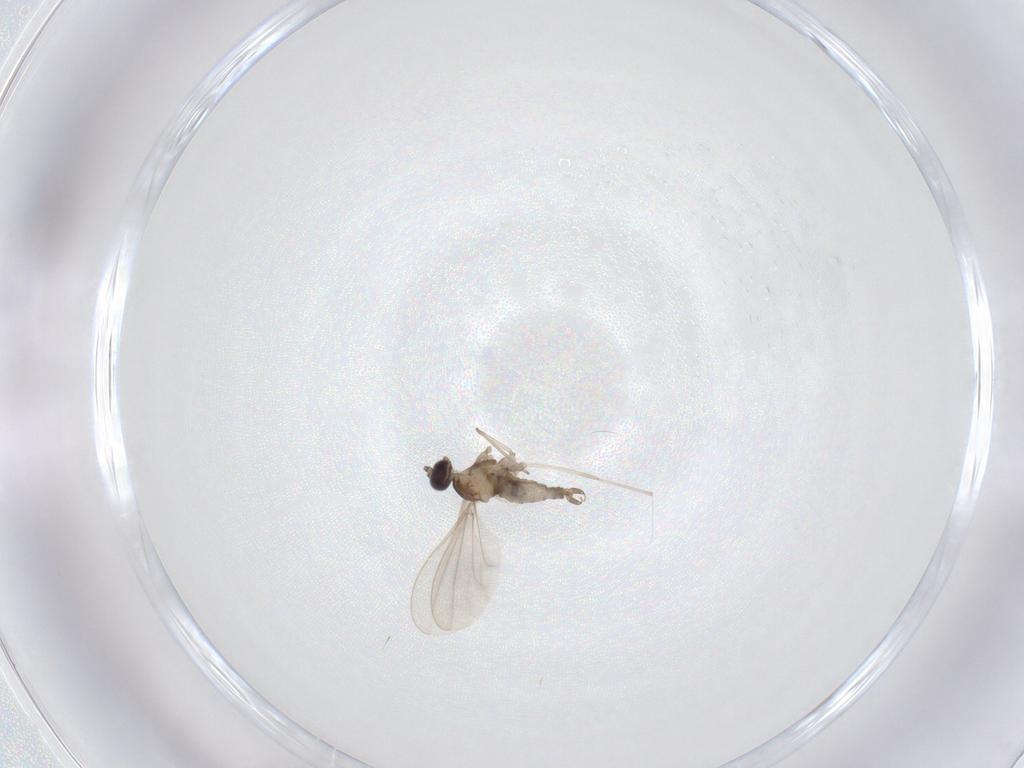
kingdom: Animalia
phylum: Arthropoda
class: Insecta
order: Diptera
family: Cecidomyiidae
